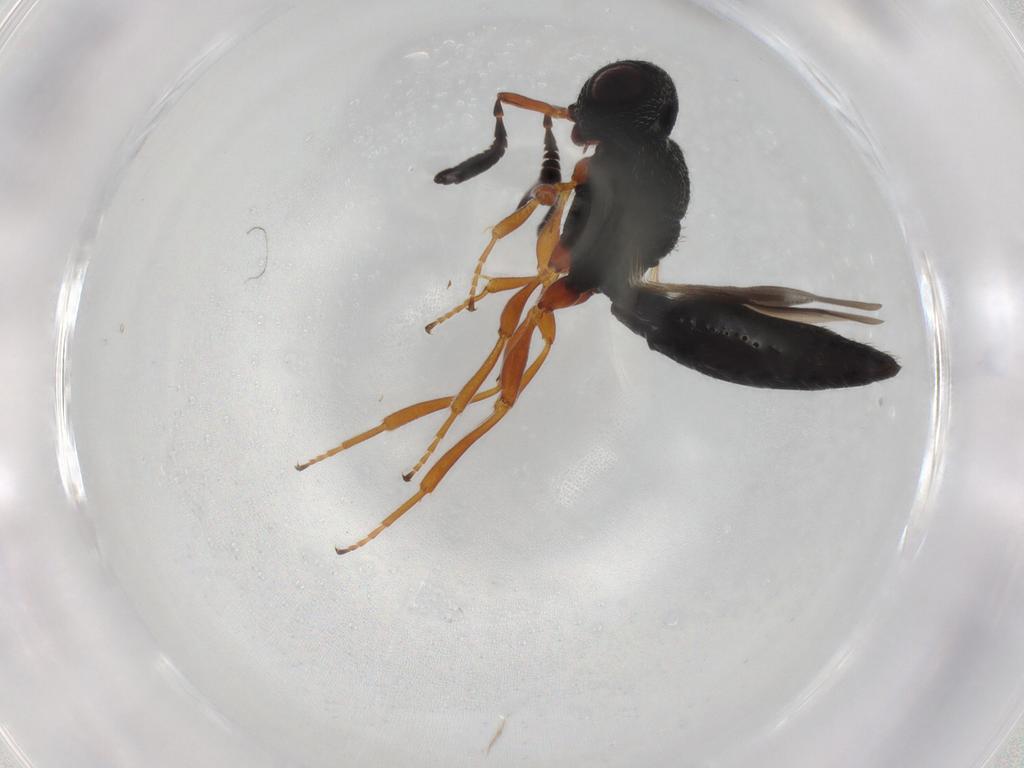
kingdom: Animalia
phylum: Arthropoda
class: Insecta
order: Hymenoptera
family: Scelionidae
